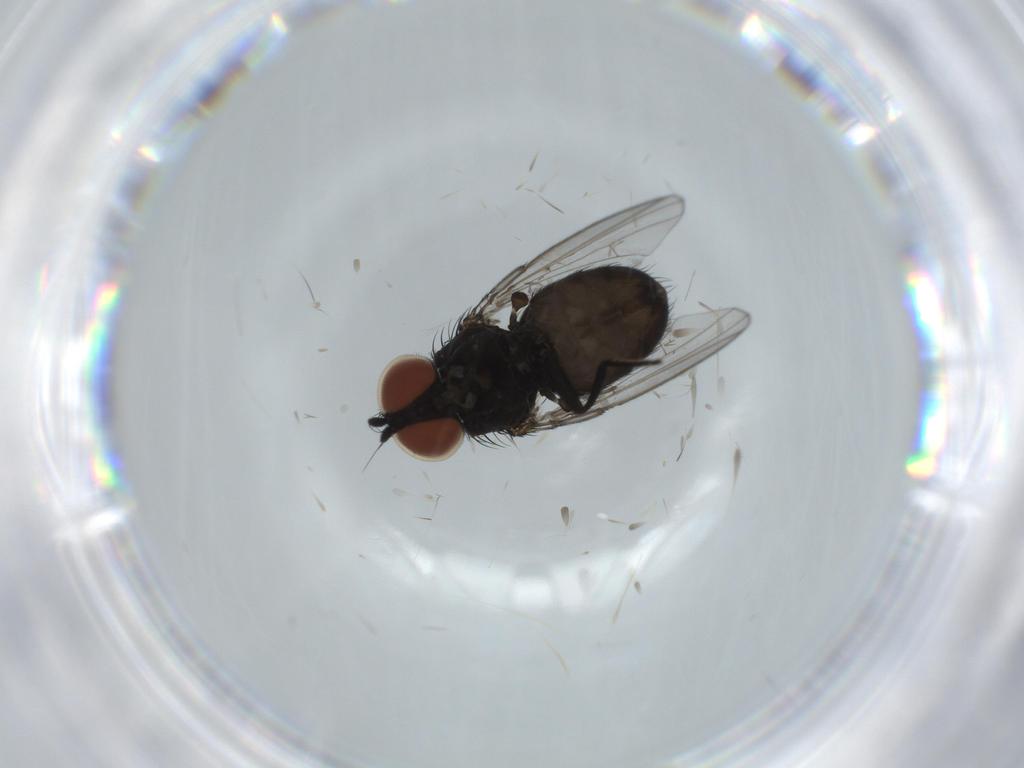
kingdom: Animalia
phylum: Arthropoda
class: Insecta
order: Diptera
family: Milichiidae
